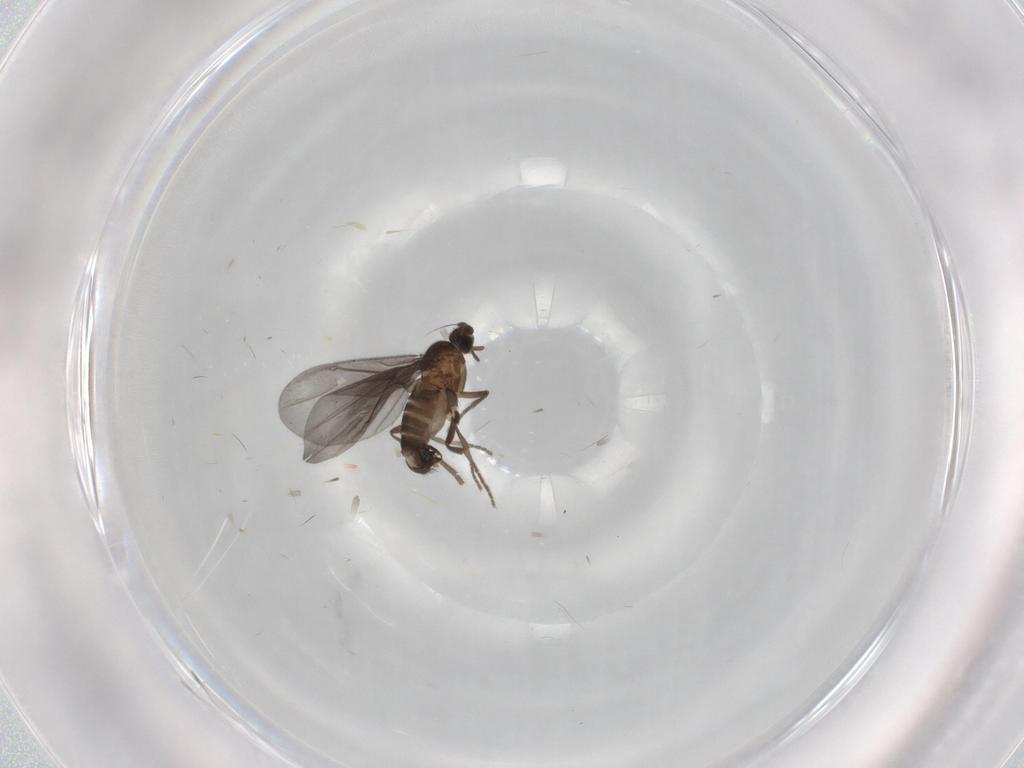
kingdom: Animalia
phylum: Arthropoda
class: Insecta
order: Diptera
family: Phoridae
